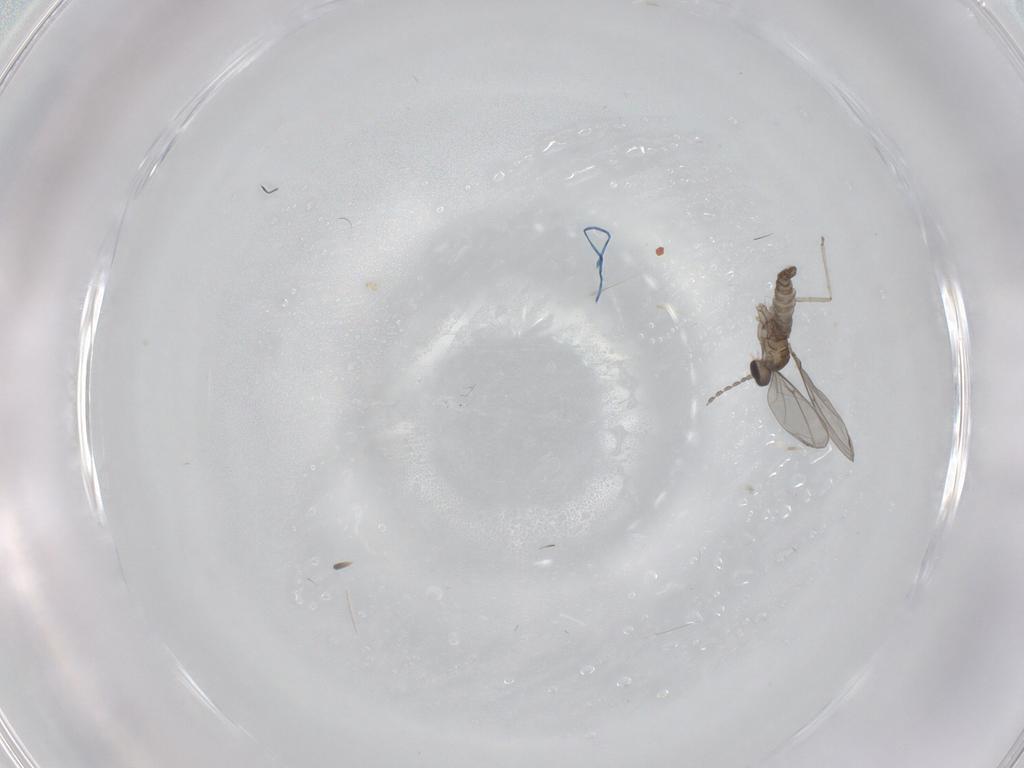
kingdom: Animalia
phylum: Arthropoda
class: Insecta
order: Diptera
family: Cecidomyiidae
